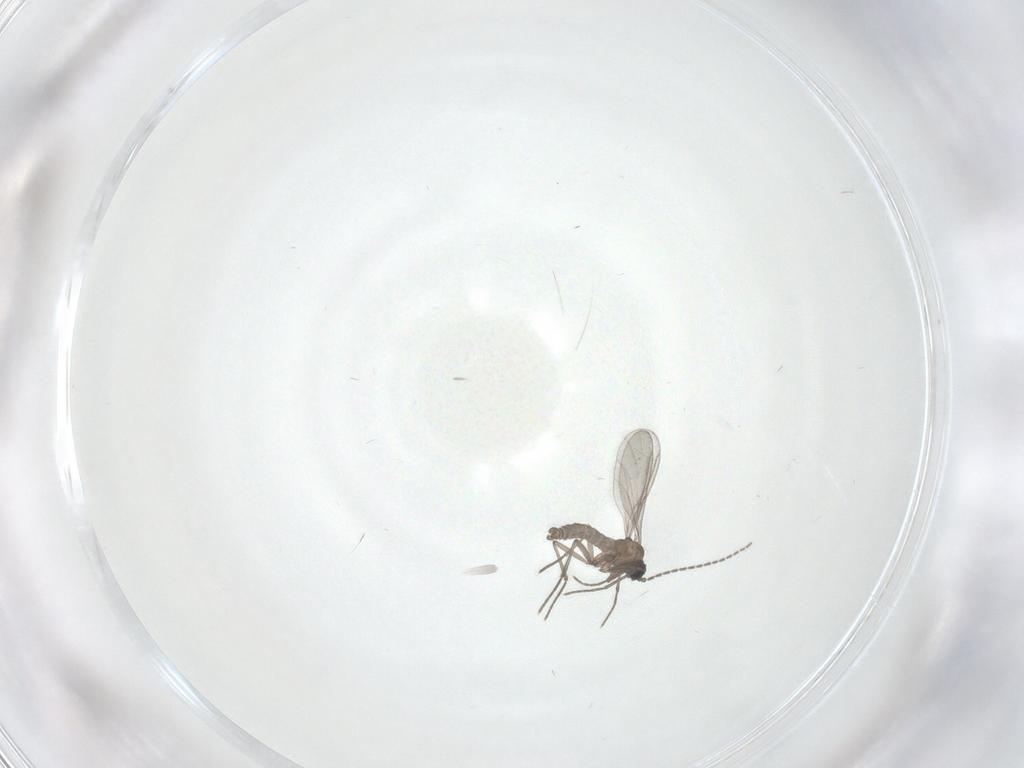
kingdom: Animalia
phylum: Arthropoda
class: Insecta
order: Diptera
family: Sciaridae
